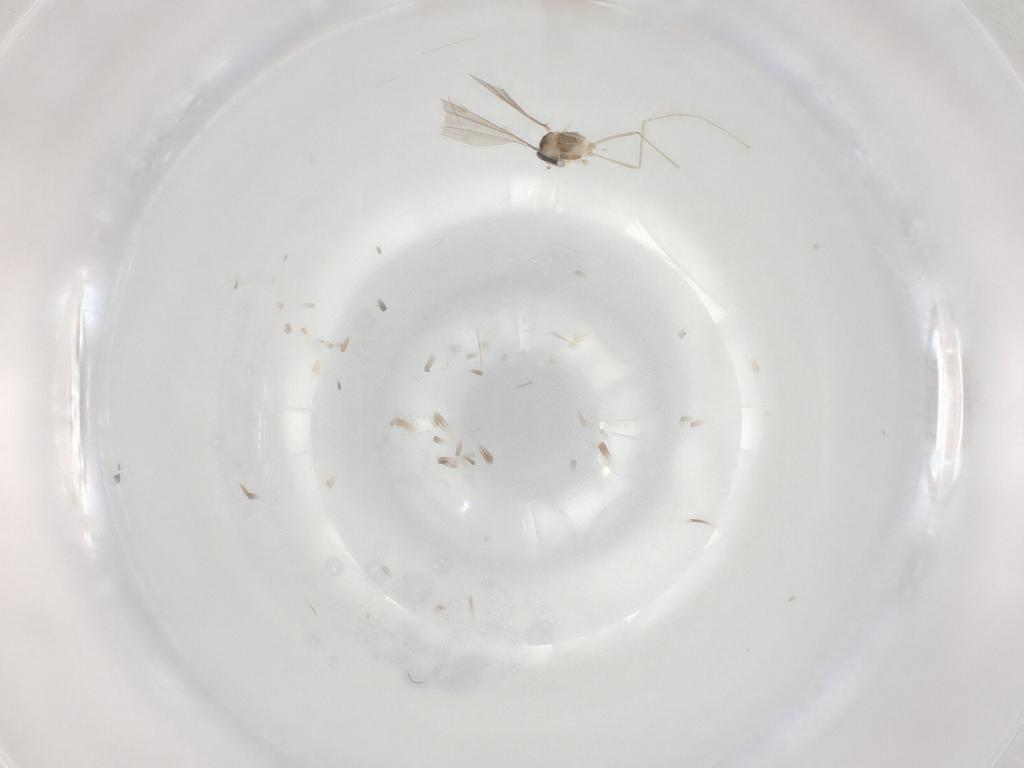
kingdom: Animalia
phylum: Arthropoda
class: Insecta
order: Diptera
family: Cecidomyiidae
